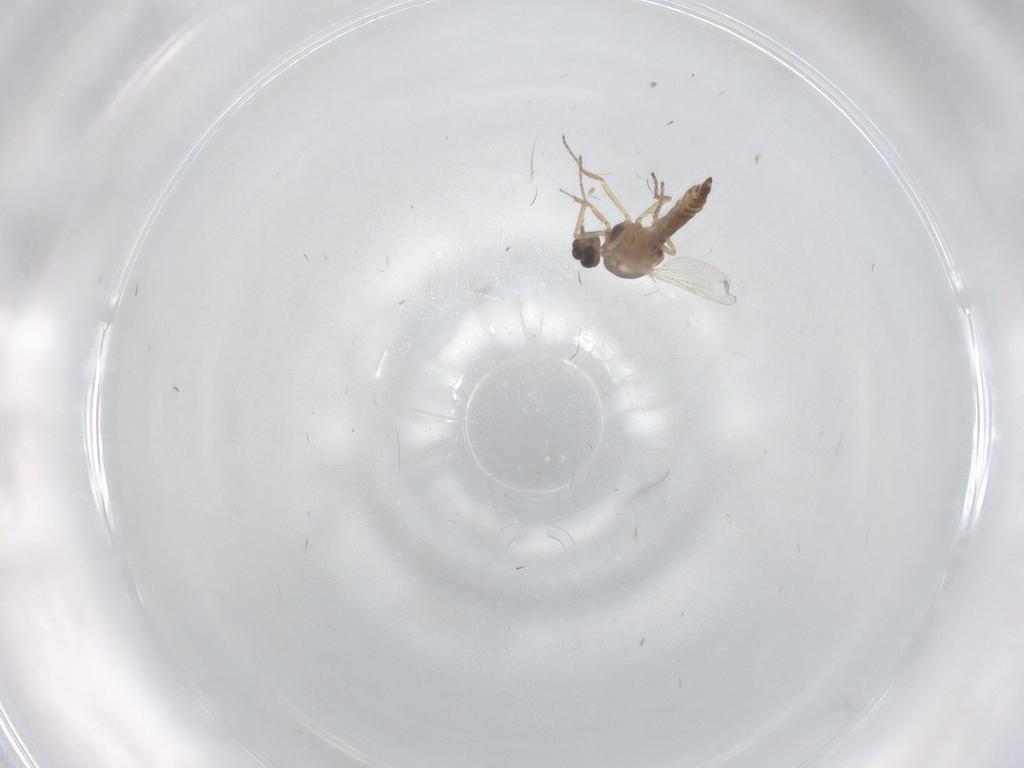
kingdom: Animalia
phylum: Arthropoda
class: Insecta
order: Diptera
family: Ceratopogonidae
